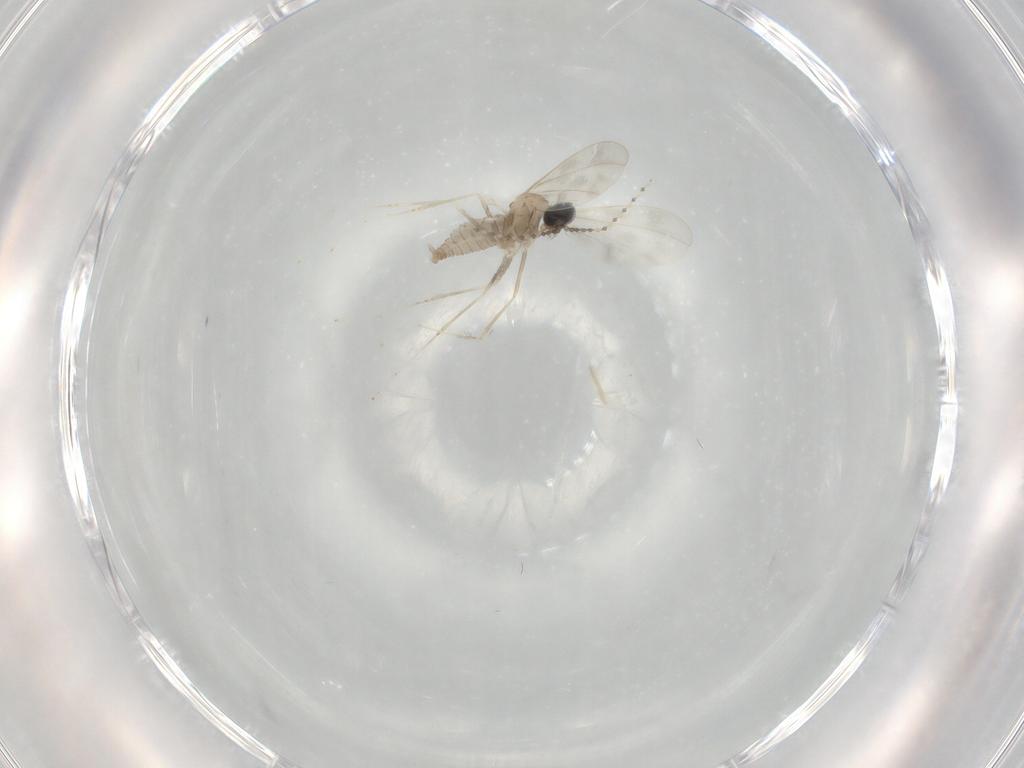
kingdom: Animalia
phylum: Arthropoda
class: Insecta
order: Diptera
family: Cecidomyiidae
